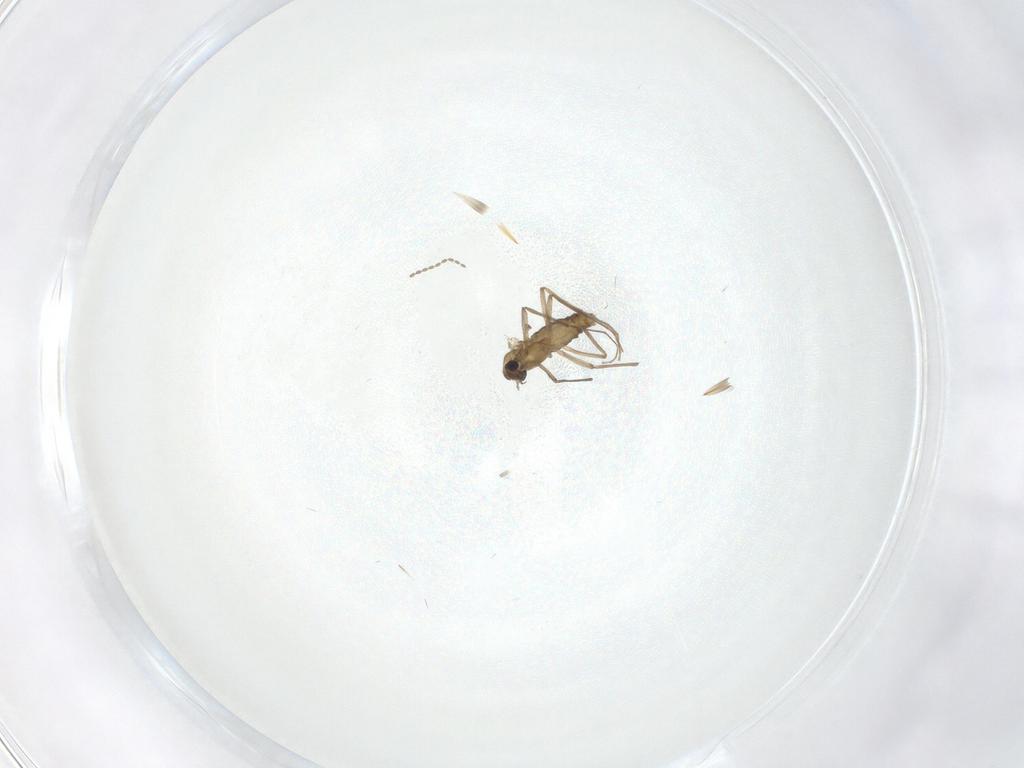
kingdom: Animalia
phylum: Arthropoda
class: Insecta
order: Diptera
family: Chironomidae
